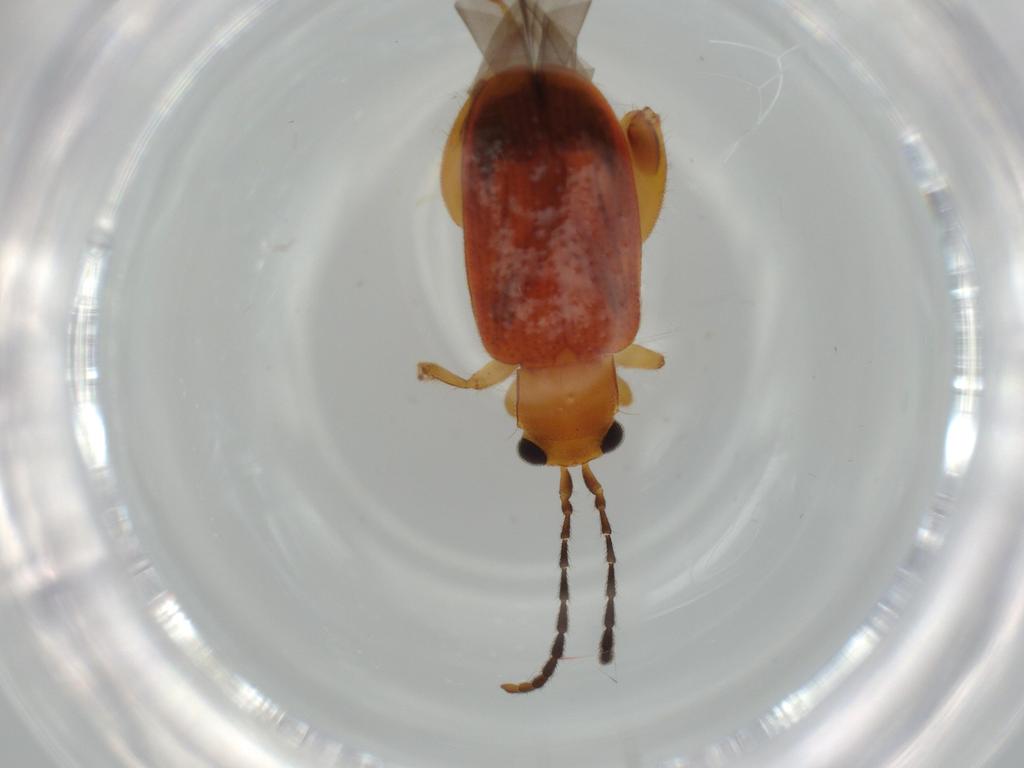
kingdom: Animalia
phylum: Arthropoda
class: Insecta
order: Coleoptera
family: Chrysomelidae
